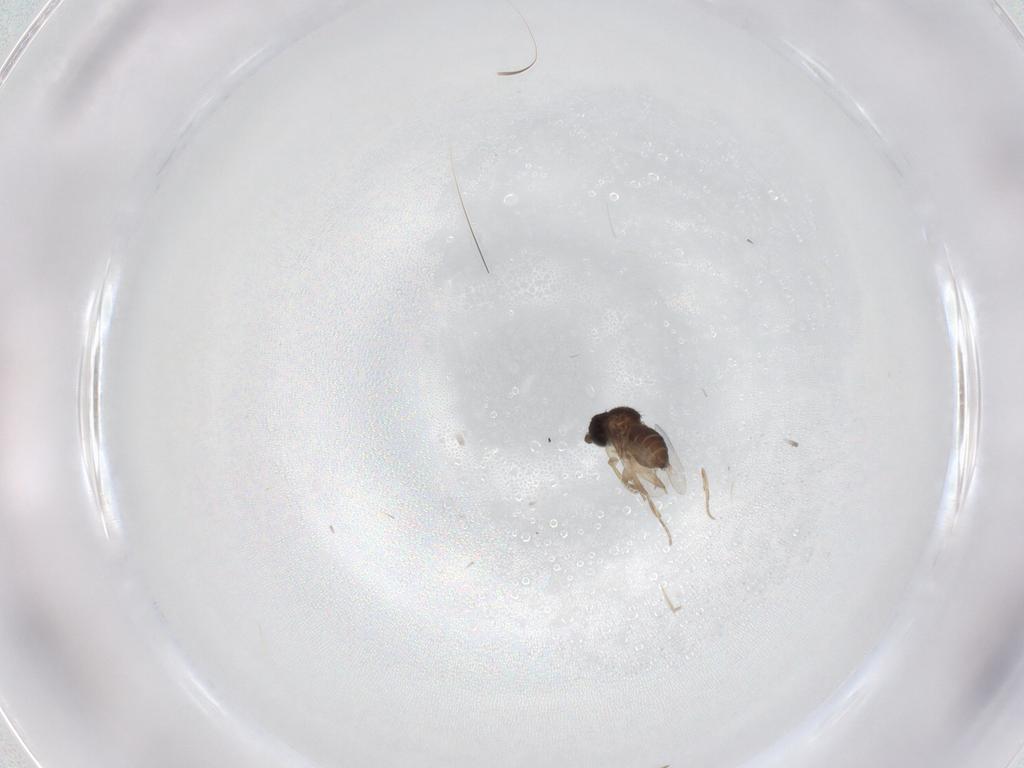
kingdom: Animalia
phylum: Arthropoda
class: Insecta
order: Diptera
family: Phoridae
